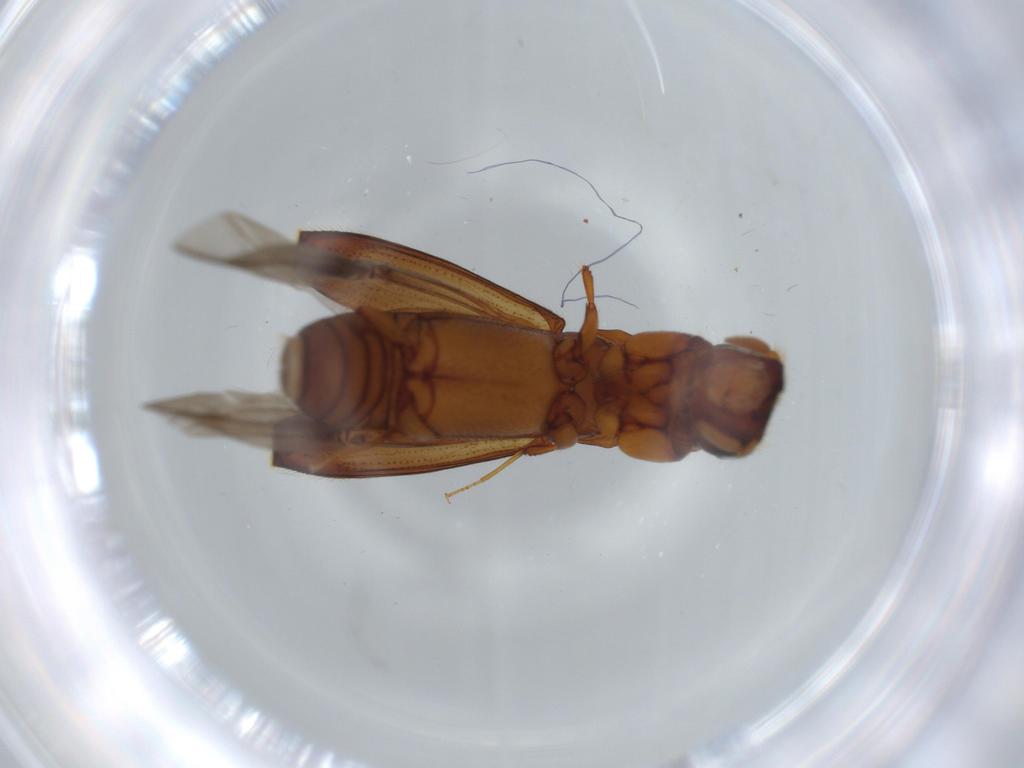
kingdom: Animalia
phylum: Arthropoda
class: Insecta
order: Coleoptera
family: Curculionidae
